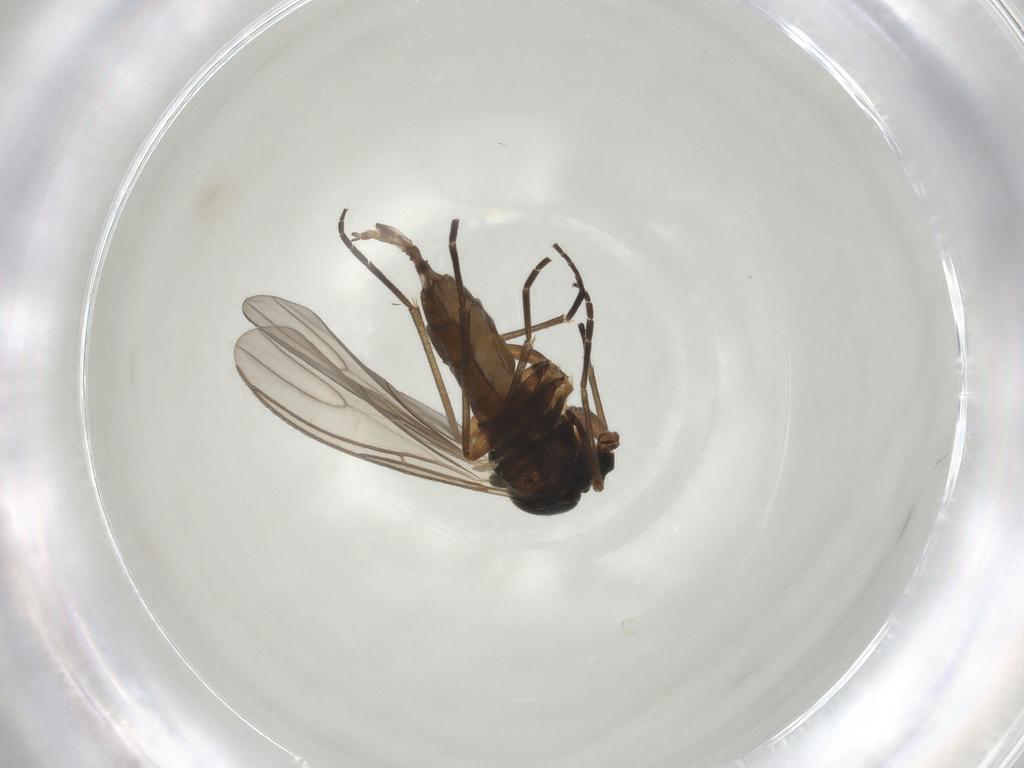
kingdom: Animalia
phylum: Arthropoda
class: Insecta
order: Diptera
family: Sciaridae
